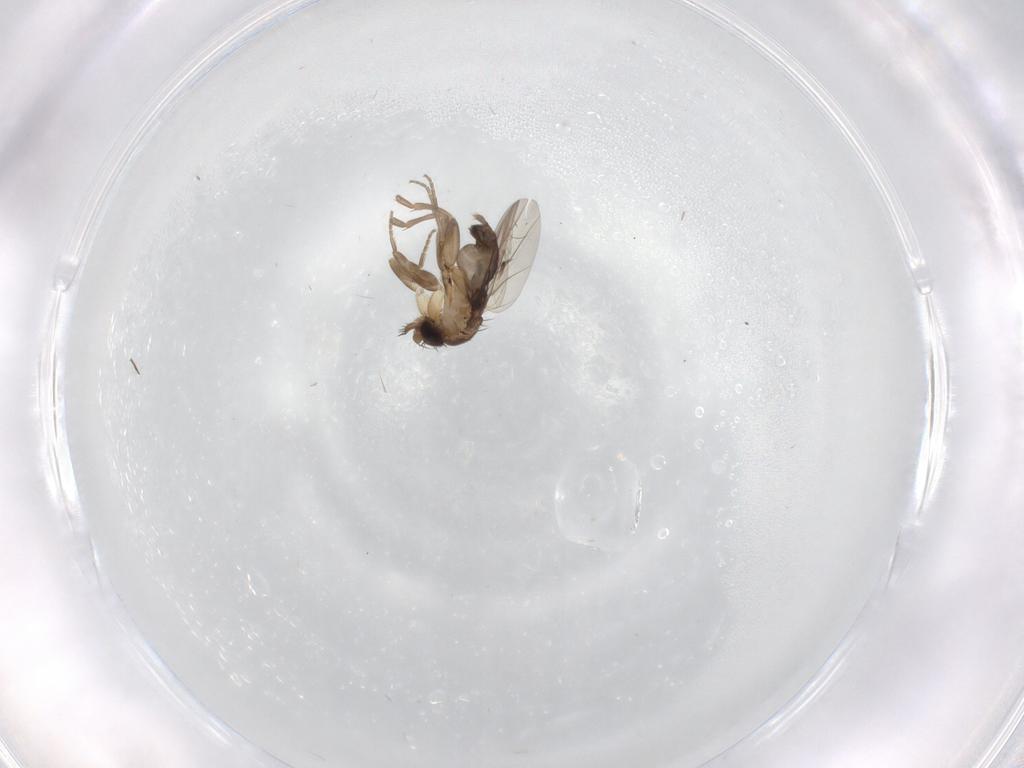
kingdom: Animalia
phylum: Arthropoda
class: Insecta
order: Diptera
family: Phoridae
